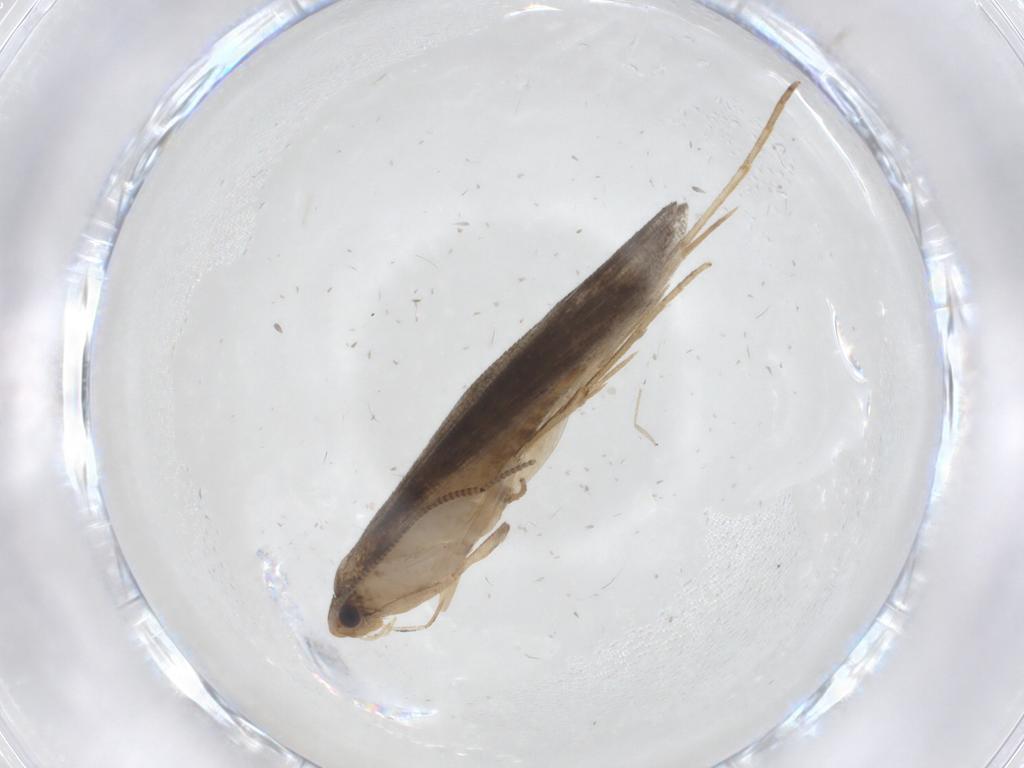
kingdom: Animalia
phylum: Arthropoda
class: Insecta
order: Lepidoptera
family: Tineidae
